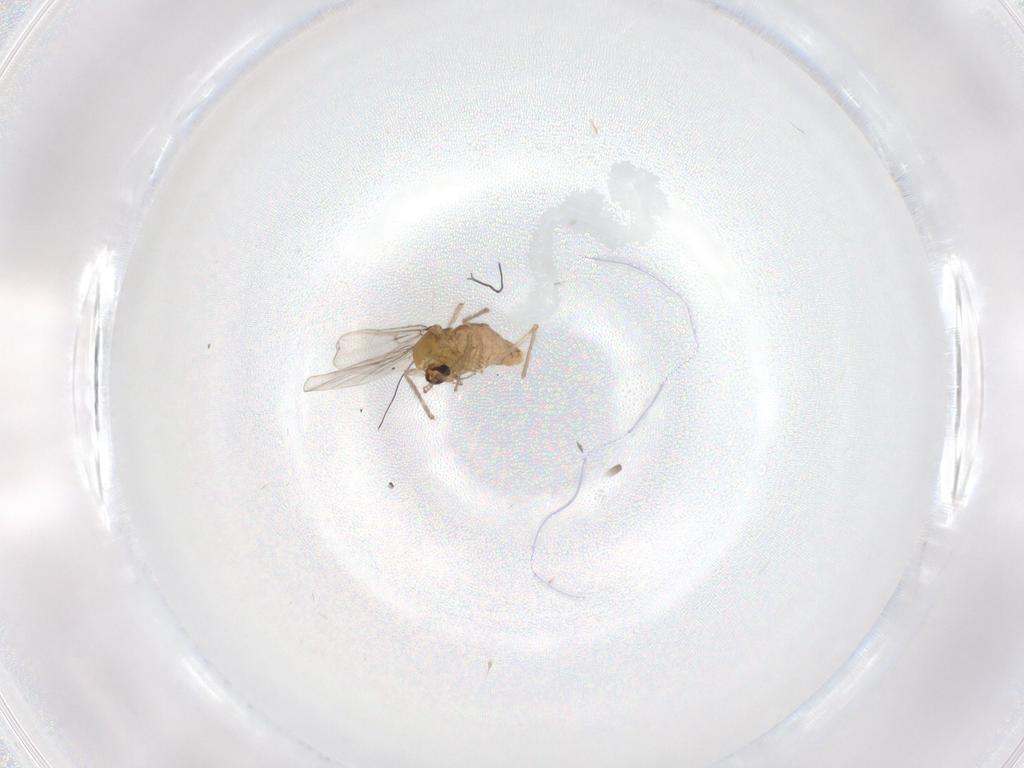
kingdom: Animalia
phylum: Arthropoda
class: Insecta
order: Diptera
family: Chironomidae
